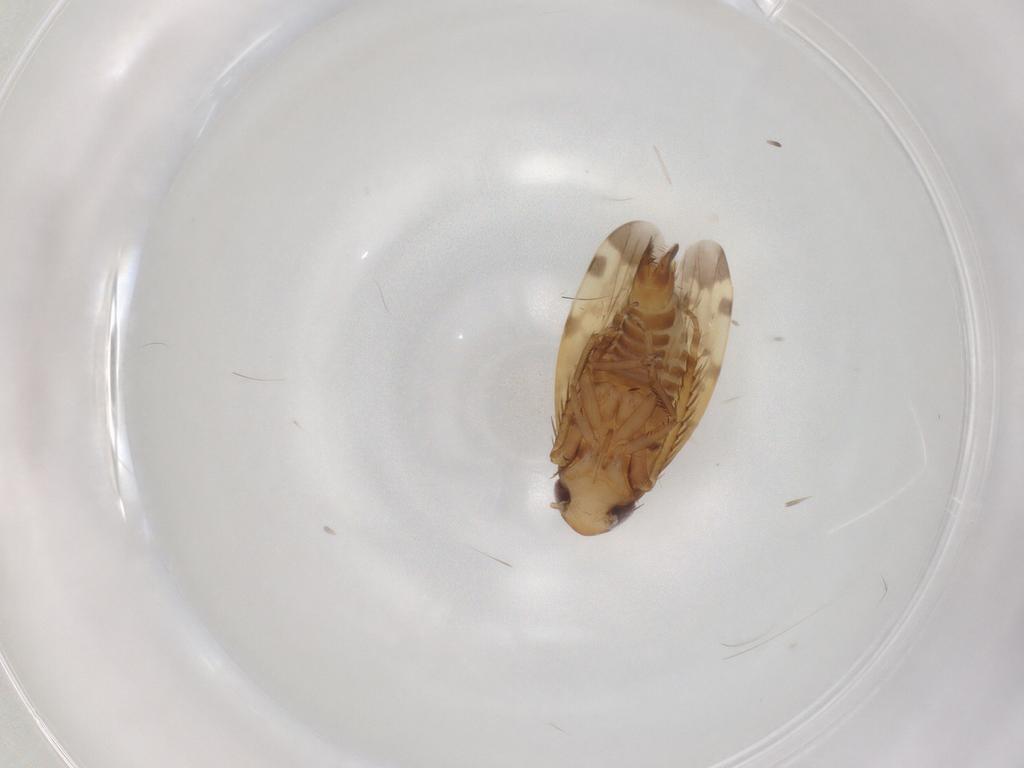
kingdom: Animalia
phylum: Arthropoda
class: Insecta
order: Hemiptera
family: Cicadellidae
